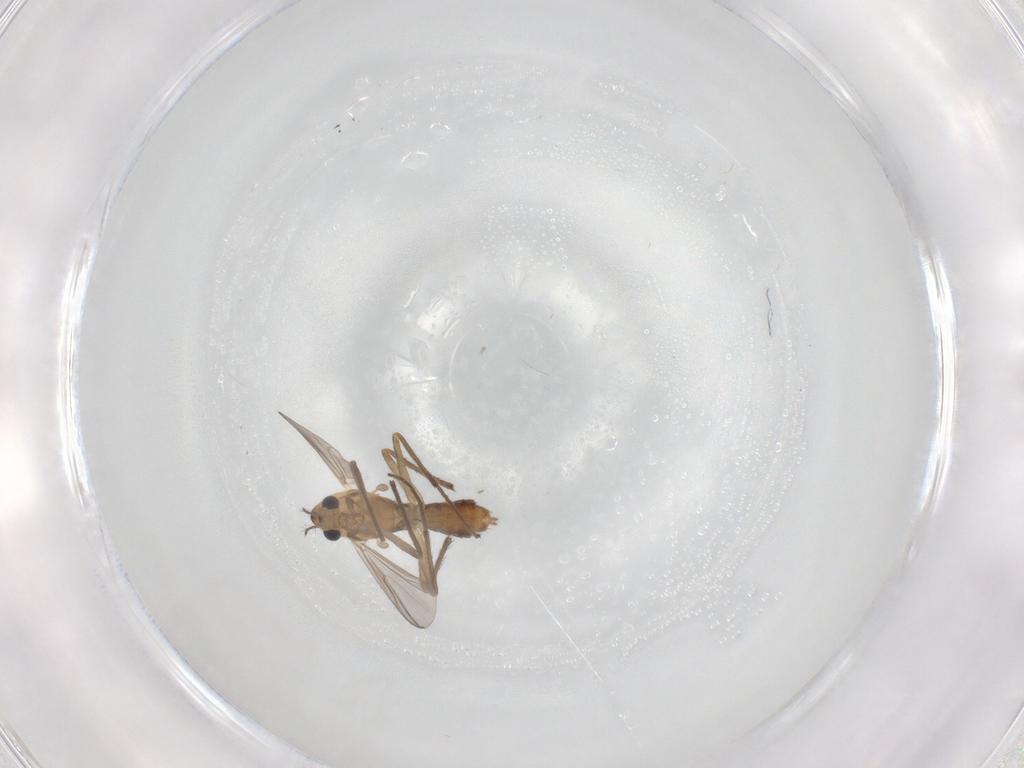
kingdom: Animalia
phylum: Arthropoda
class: Insecta
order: Diptera
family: Chironomidae
